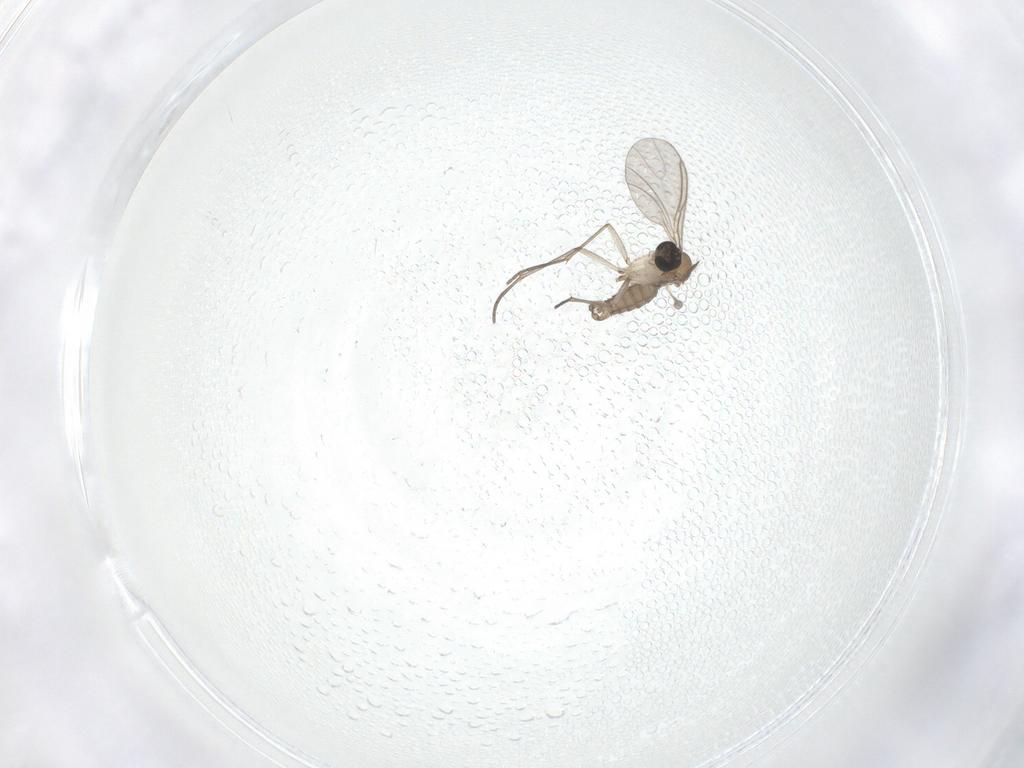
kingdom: Animalia
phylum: Arthropoda
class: Insecta
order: Diptera
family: Sciaridae
